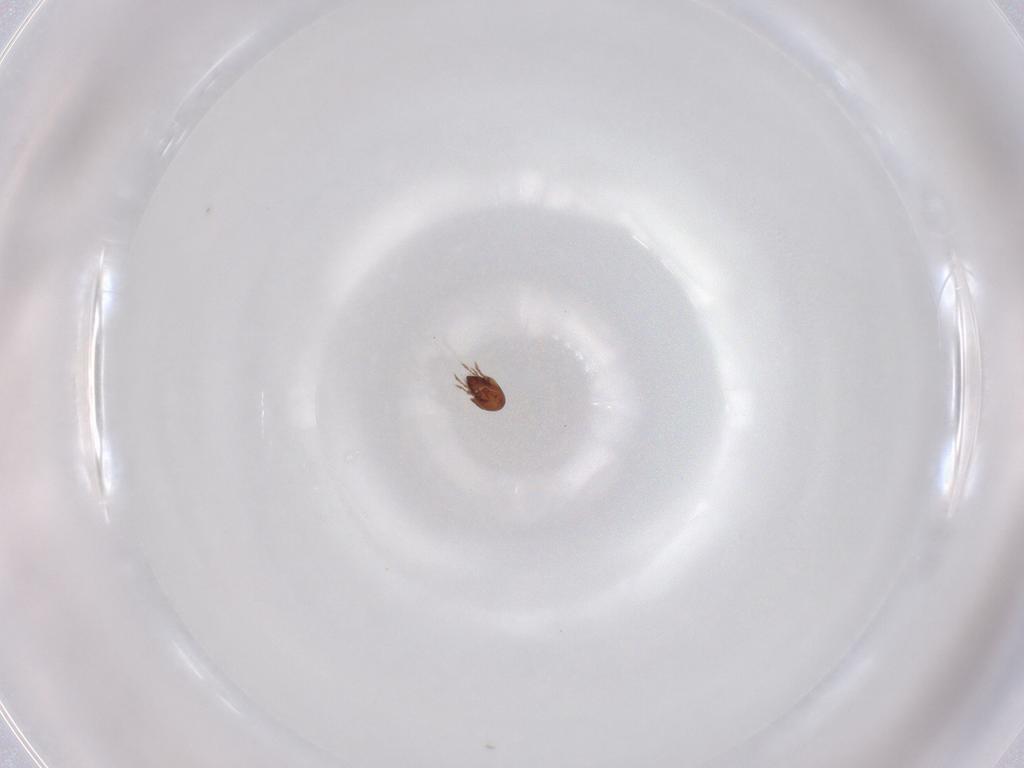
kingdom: Animalia
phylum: Arthropoda
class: Arachnida
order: Sarcoptiformes
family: Ceratozetidae
